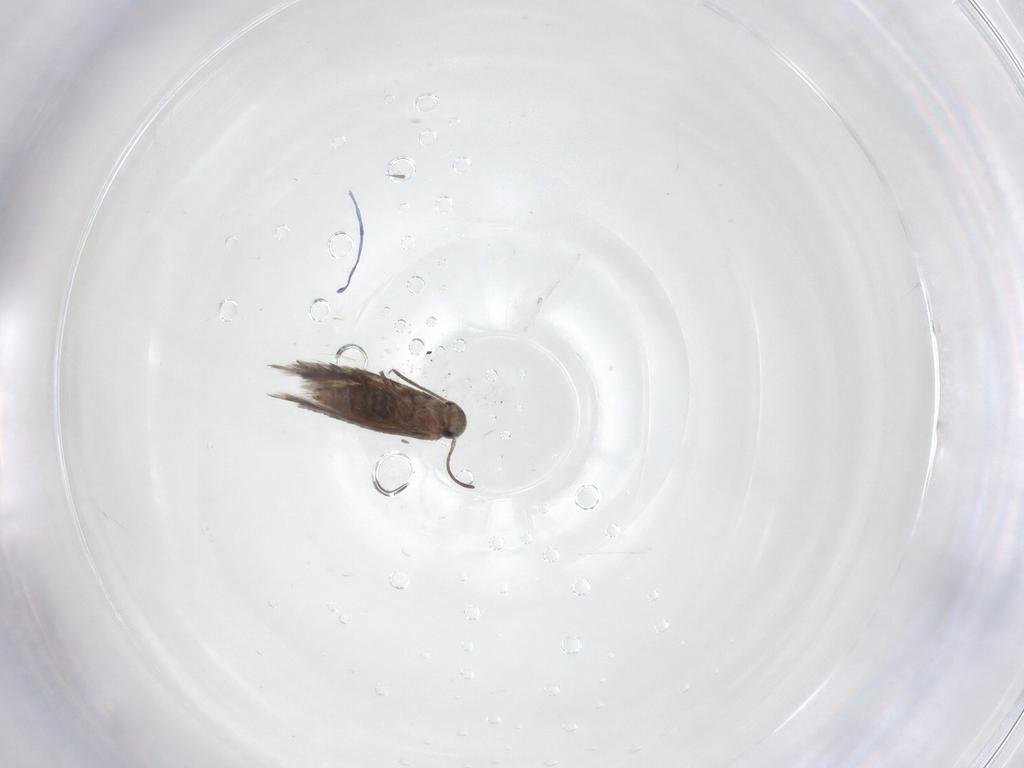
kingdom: Animalia
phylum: Arthropoda
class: Insecta
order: Lepidoptera
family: Heliozelidae
